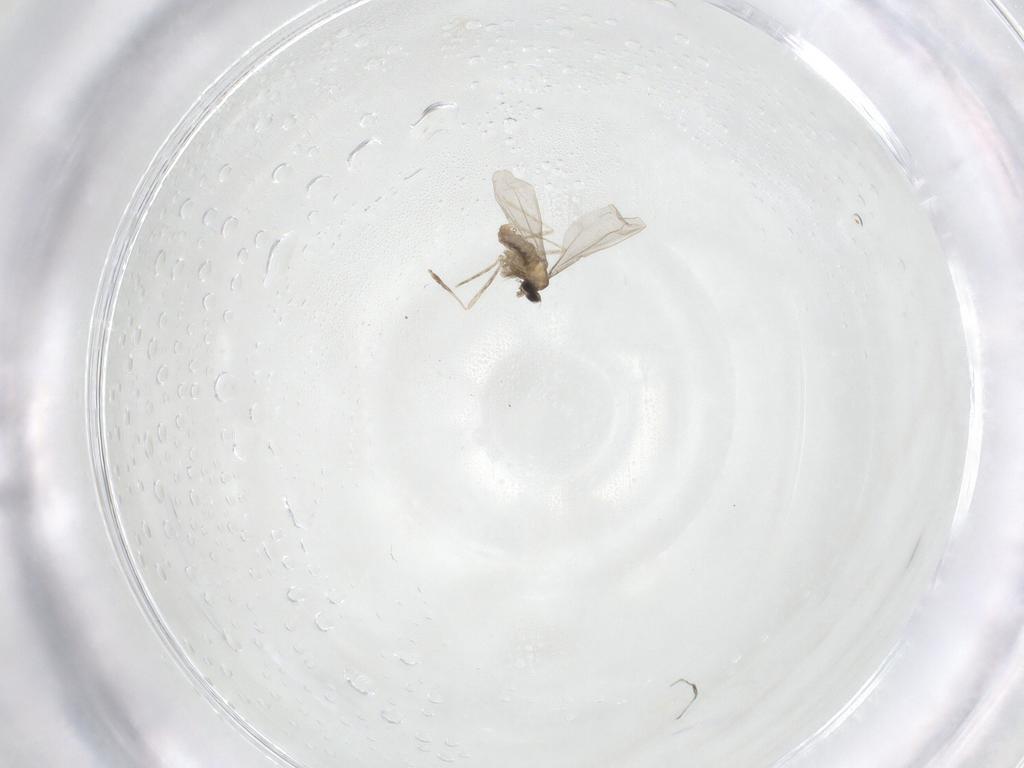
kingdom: Animalia
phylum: Arthropoda
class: Insecta
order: Diptera
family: Cecidomyiidae
